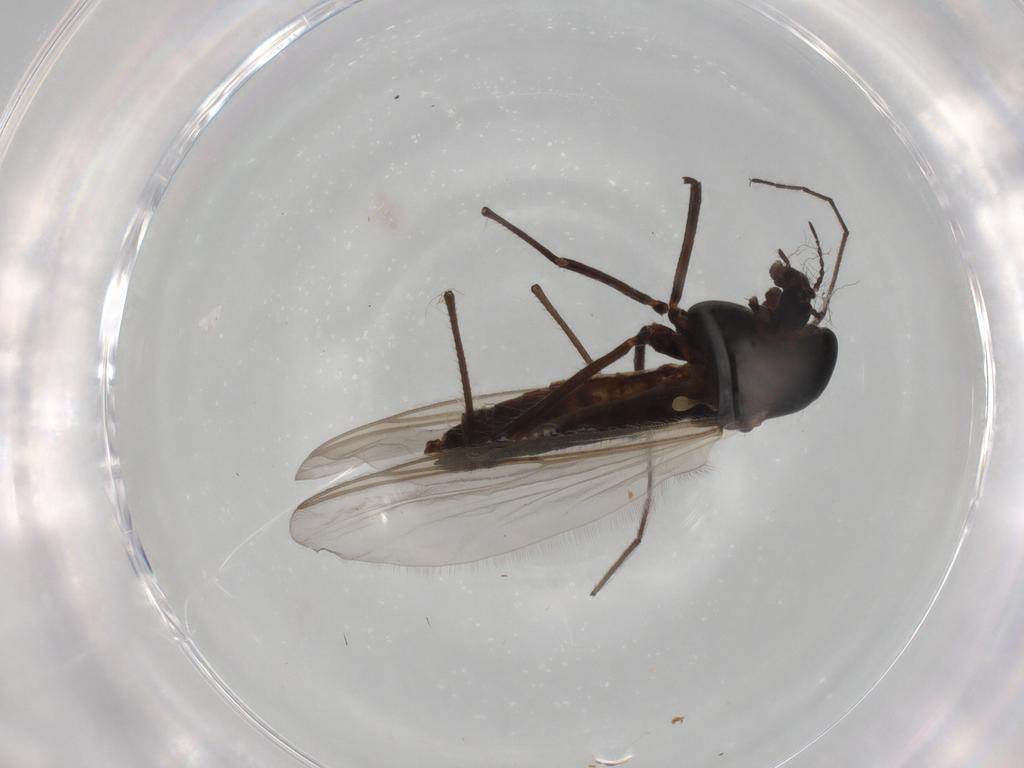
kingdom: Animalia
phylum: Arthropoda
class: Insecta
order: Diptera
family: Chironomidae
